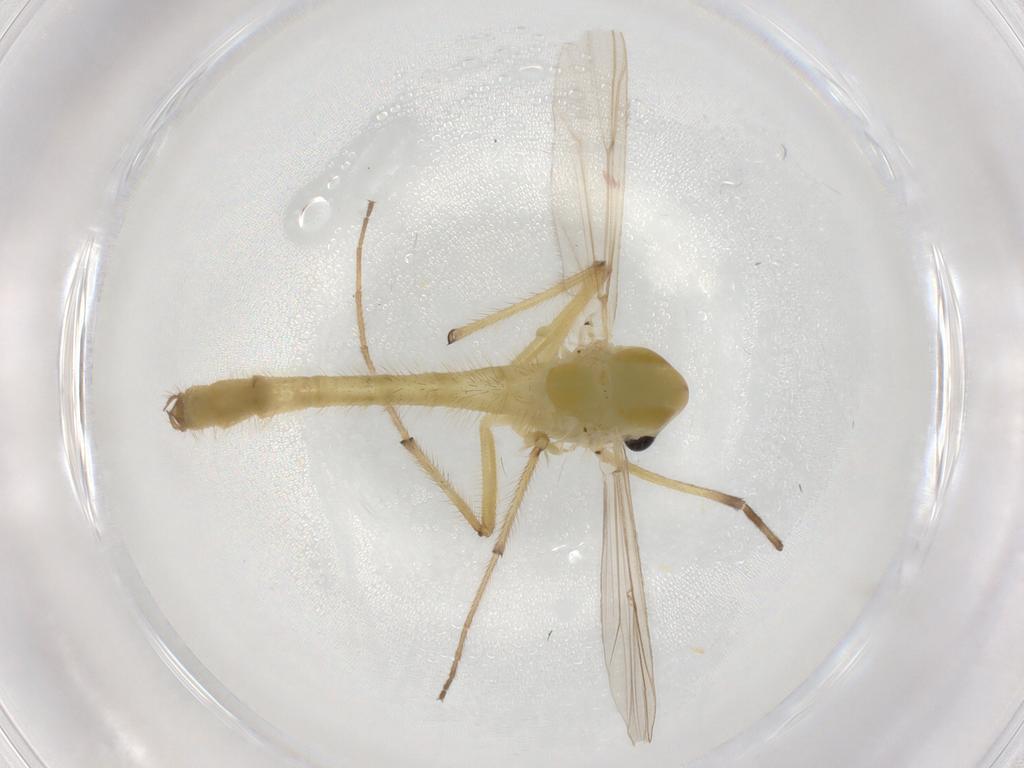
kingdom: Animalia
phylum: Arthropoda
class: Insecta
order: Diptera
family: Chironomidae
